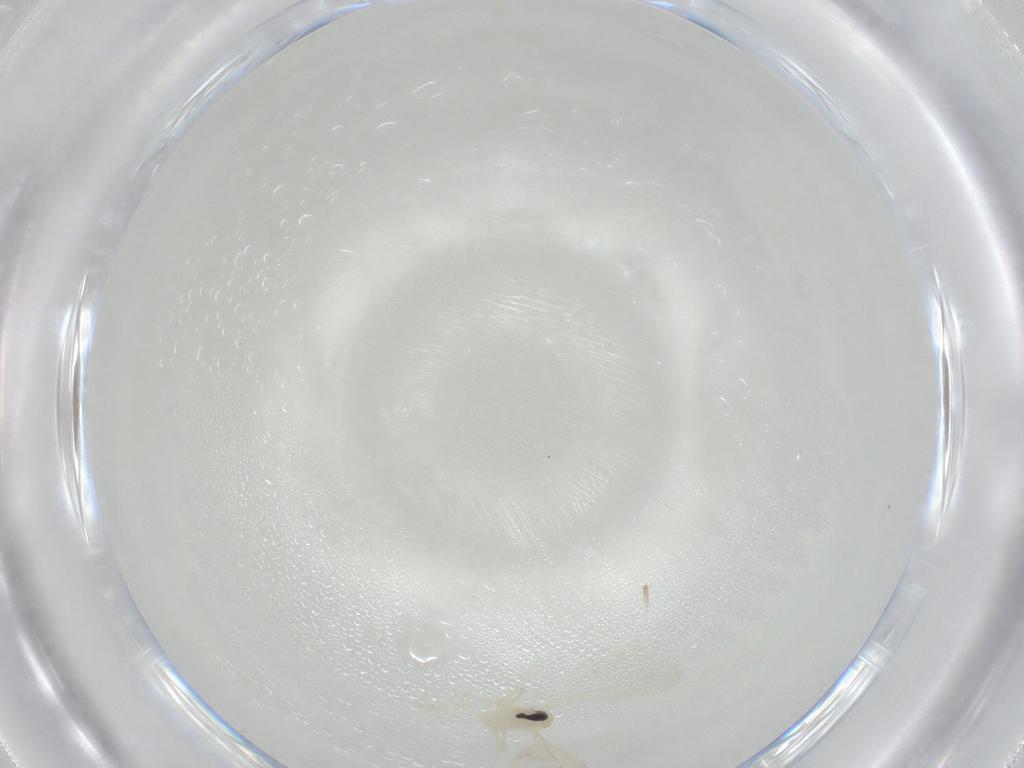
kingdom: Animalia
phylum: Arthropoda
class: Insecta
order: Diptera
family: Cecidomyiidae
